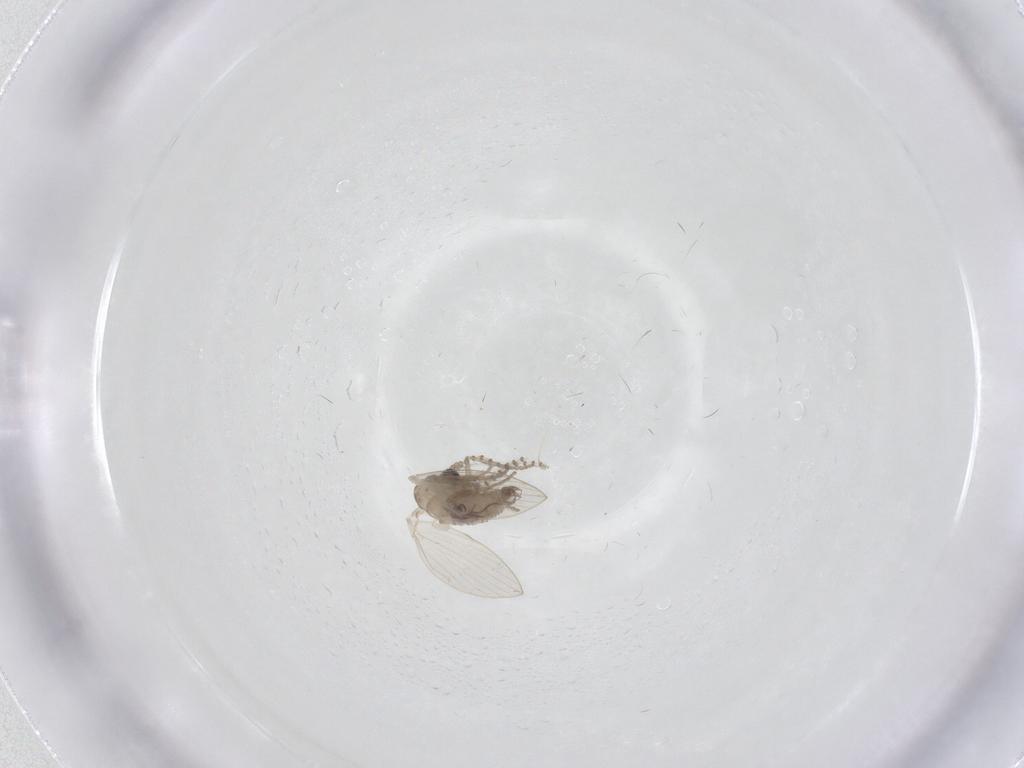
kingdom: Animalia
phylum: Arthropoda
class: Insecta
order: Diptera
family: Psychodidae
